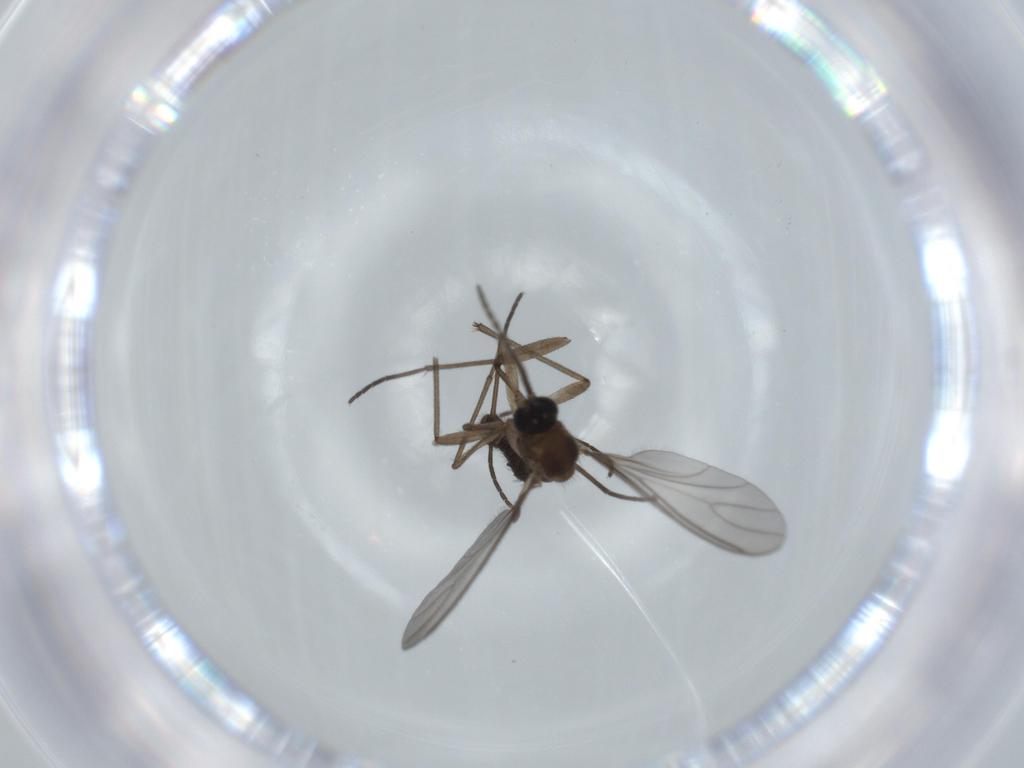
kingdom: Animalia
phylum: Arthropoda
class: Insecta
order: Diptera
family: Sciaridae
